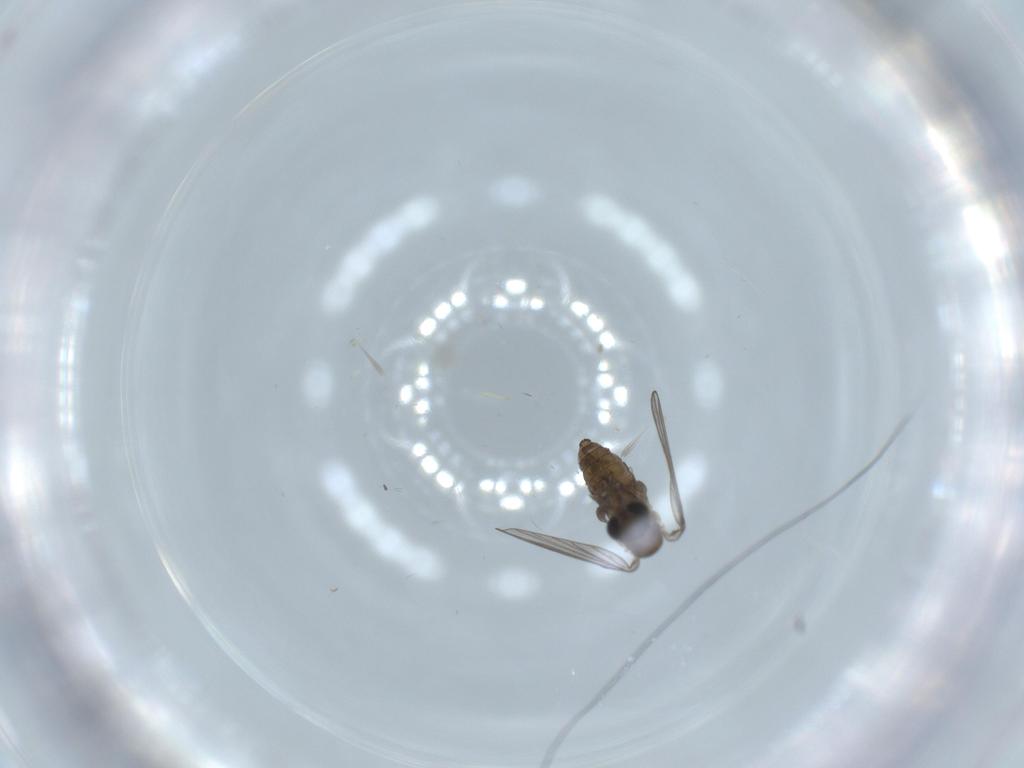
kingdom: Animalia
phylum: Arthropoda
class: Insecta
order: Diptera
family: Psychodidae
